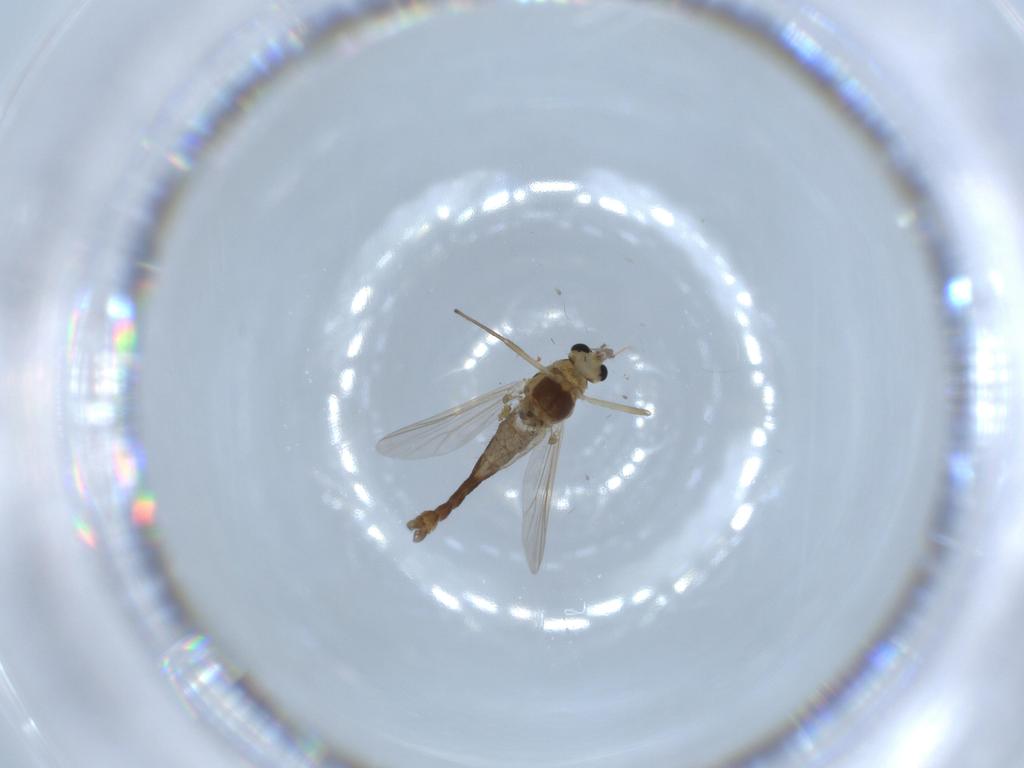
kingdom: Animalia
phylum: Arthropoda
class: Insecta
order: Diptera
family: Chironomidae
